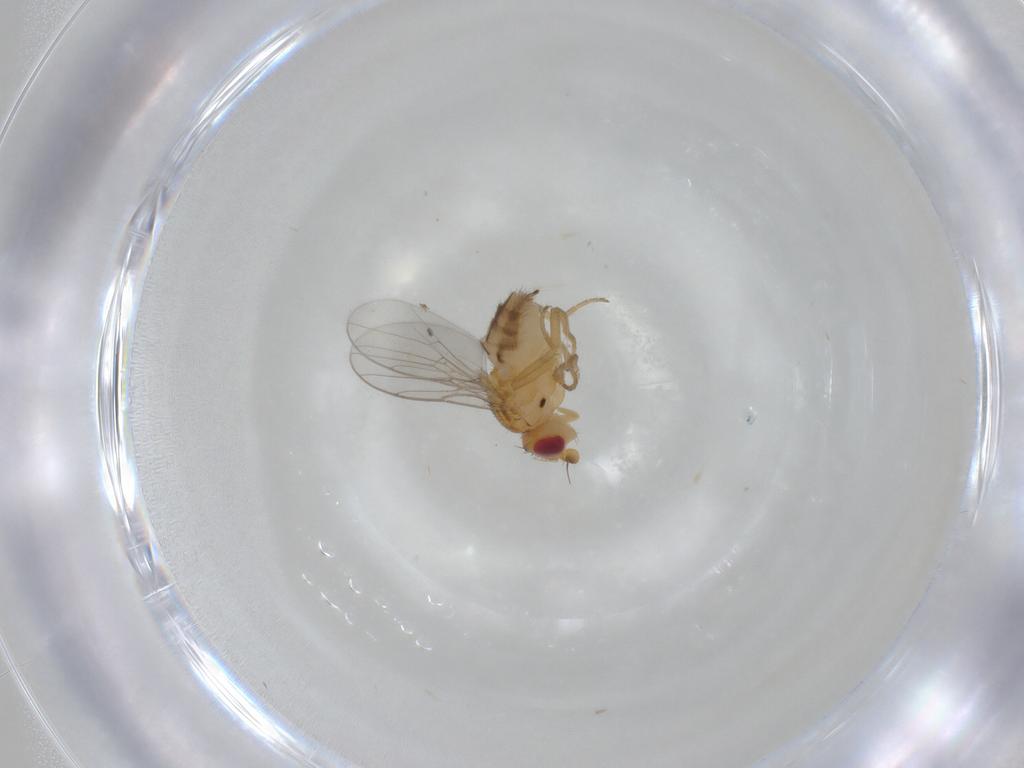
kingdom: Animalia
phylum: Arthropoda
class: Insecta
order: Diptera
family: Chloropidae
